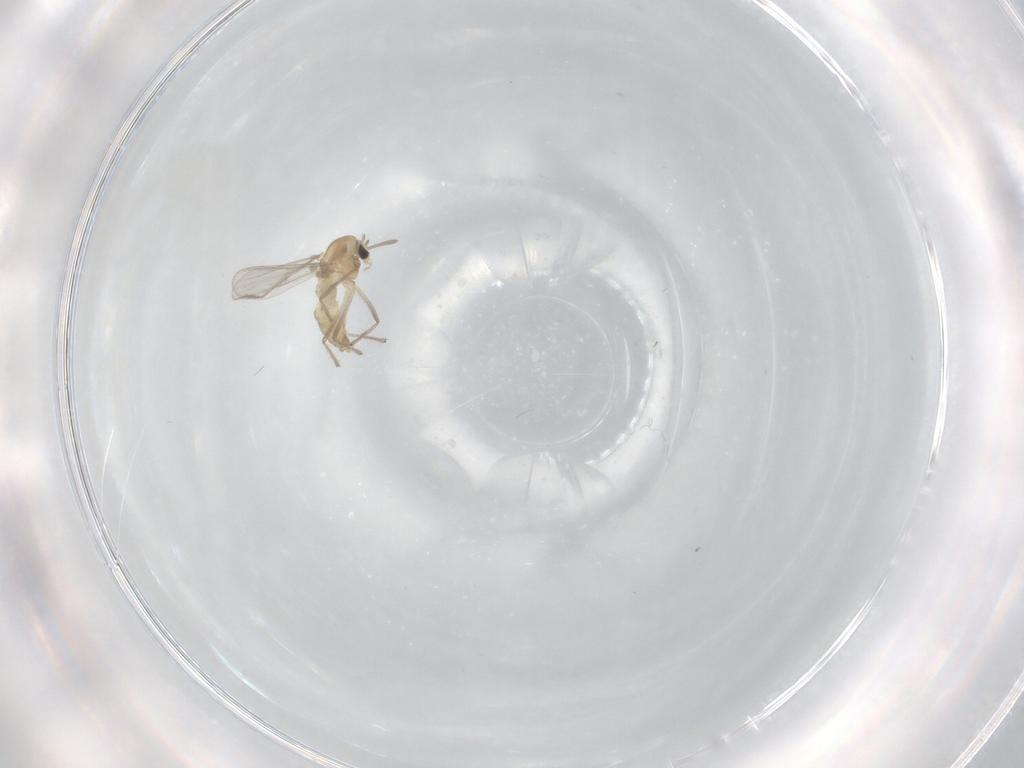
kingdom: Animalia
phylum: Arthropoda
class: Insecta
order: Diptera
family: Chironomidae
